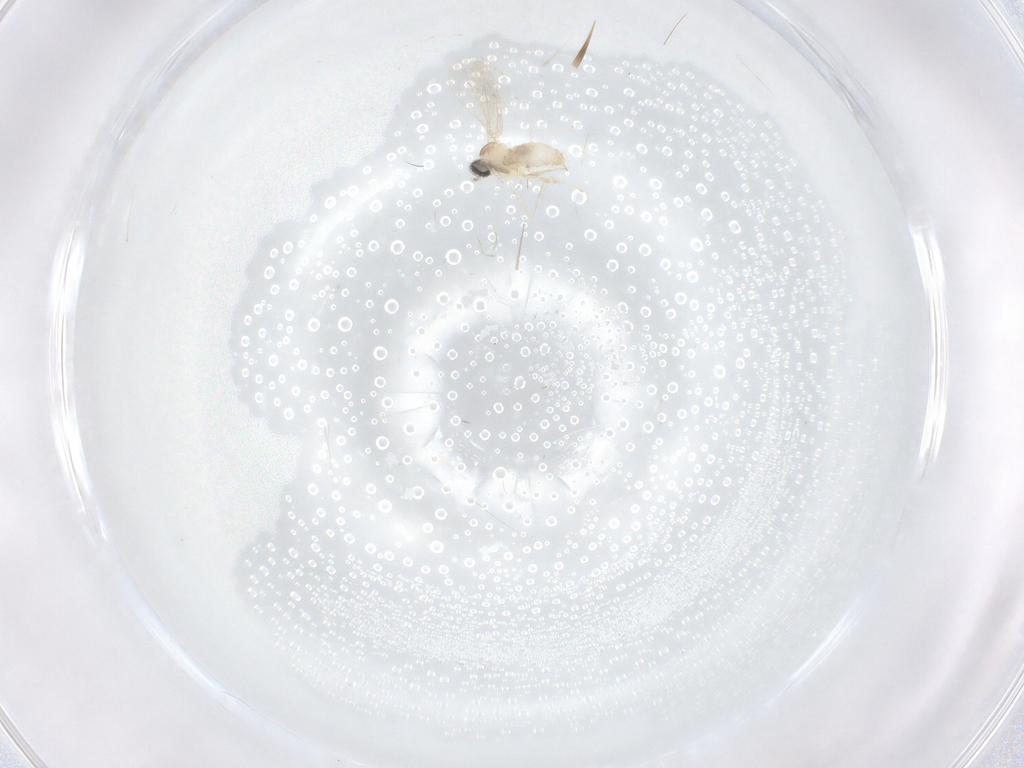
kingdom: Animalia
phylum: Arthropoda
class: Insecta
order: Diptera
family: Cecidomyiidae
